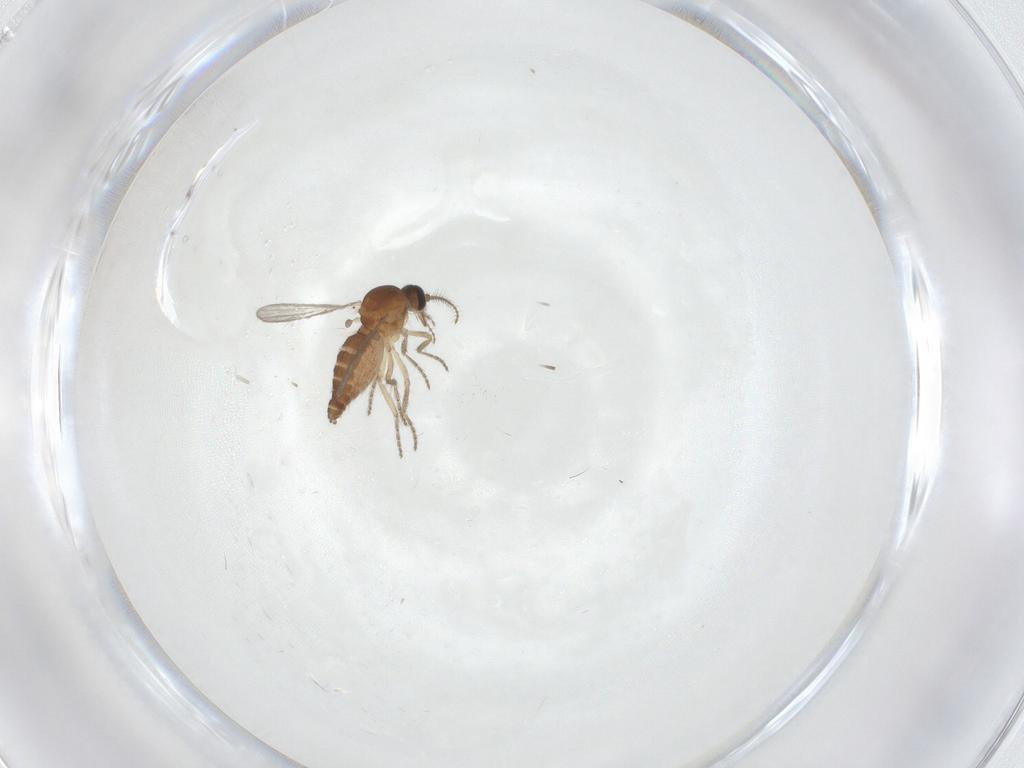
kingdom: Animalia
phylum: Arthropoda
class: Insecta
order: Diptera
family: Ceratopogonidae
